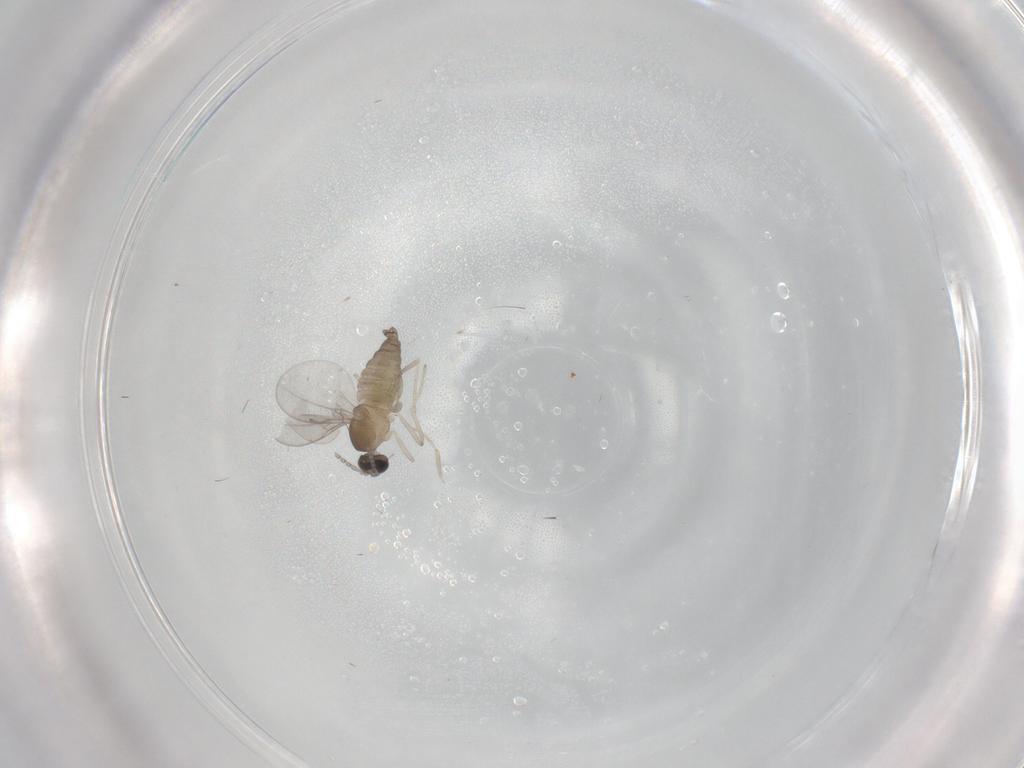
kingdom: Animalia
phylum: Arthropoda
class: Insecta
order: Diptera
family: Cecidomyiidae
